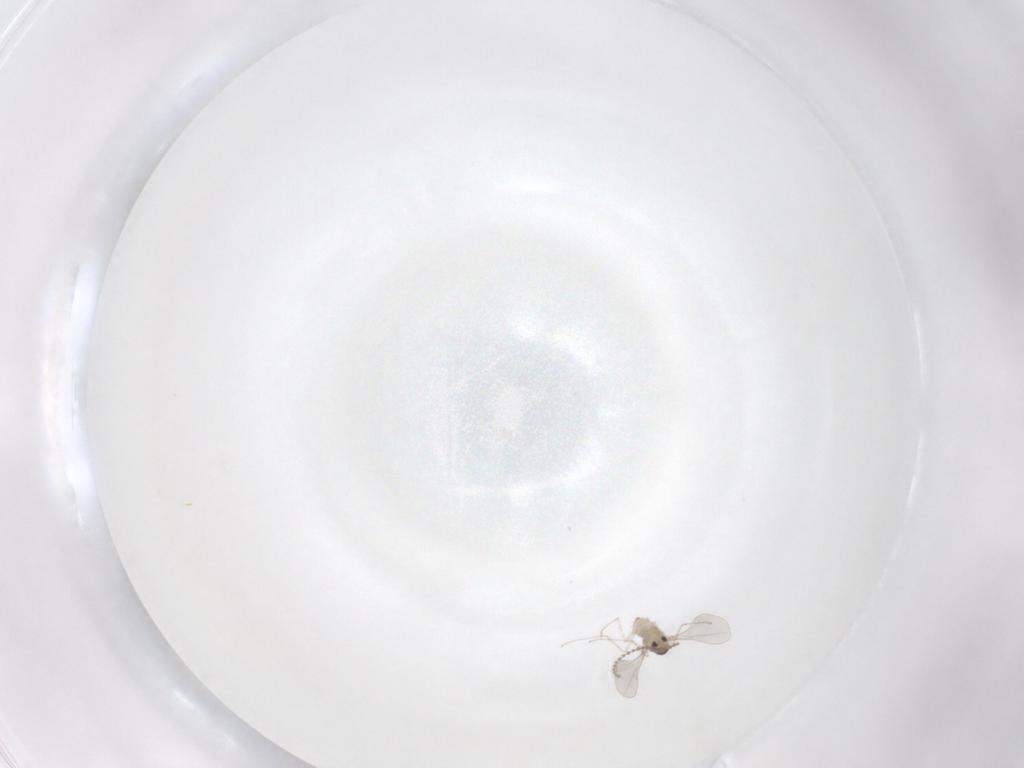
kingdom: Animalia
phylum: Arthropoda
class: Insecta
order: Diptera
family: Cecidomyiidae
